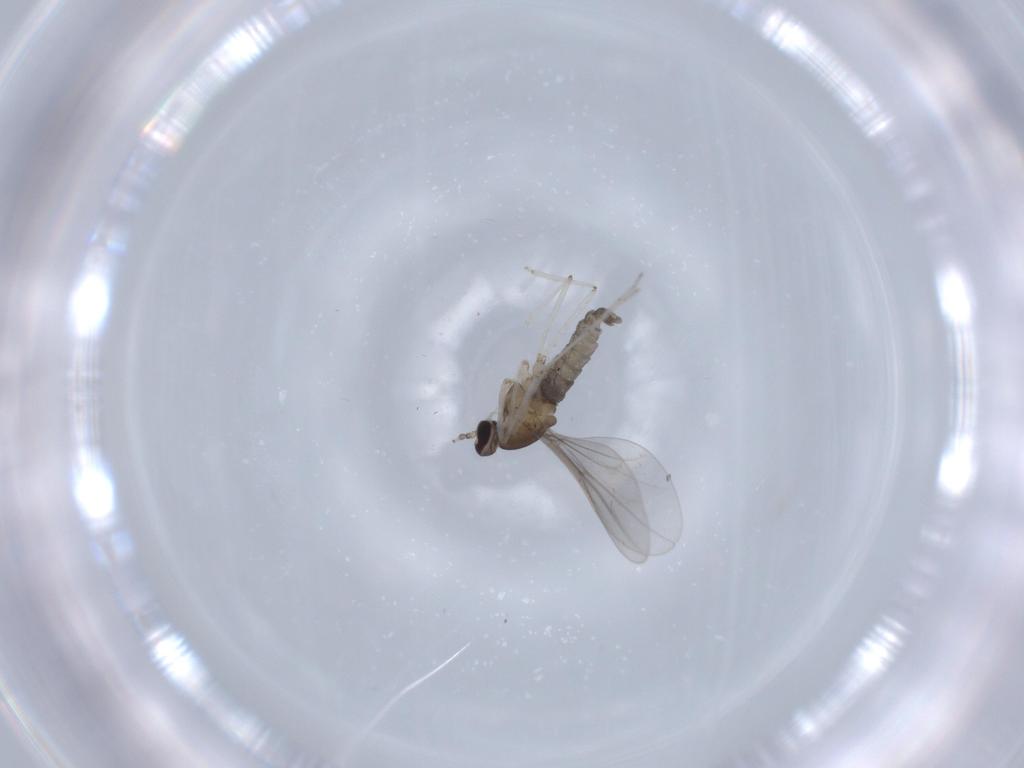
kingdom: Animalia
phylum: Arthropoda
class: Insecta
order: Diptera
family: Cecidomyiidae
